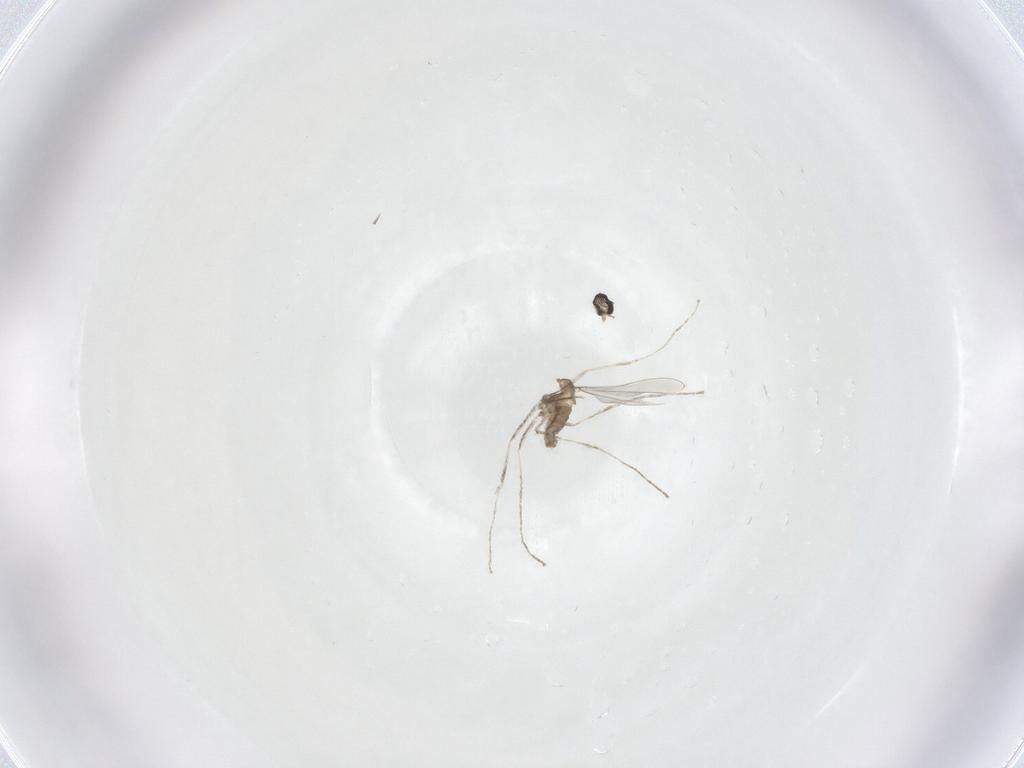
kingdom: Animalia
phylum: Arthropoda
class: Insecta
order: Diptera
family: Cecidomyiidae
